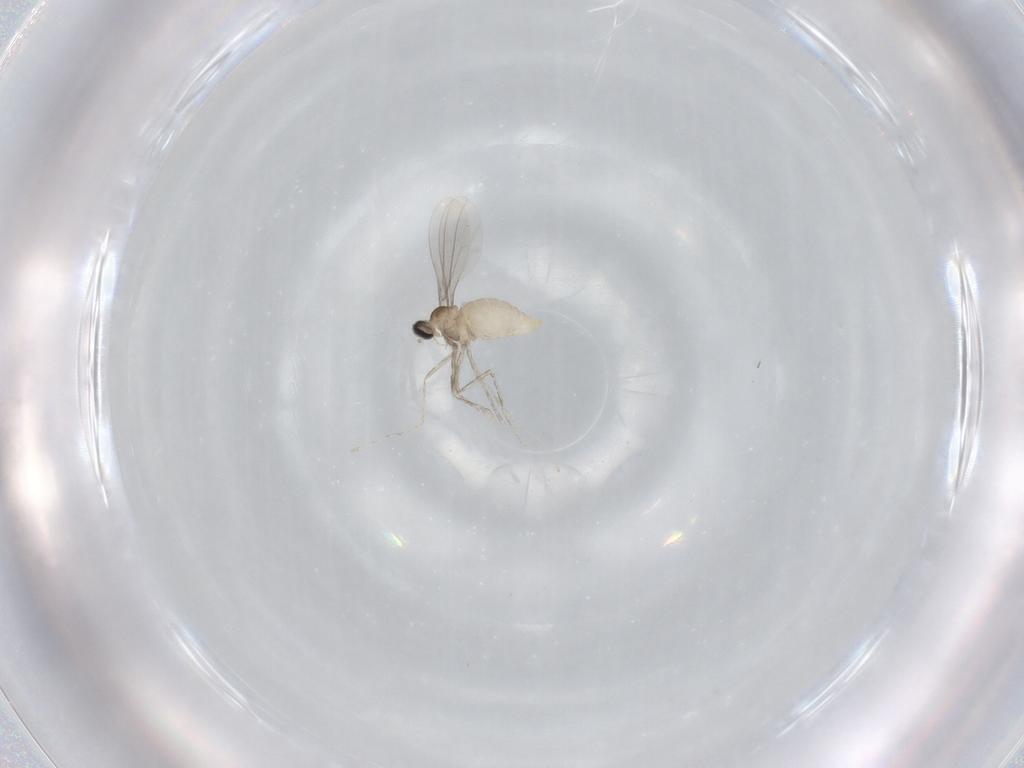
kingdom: Animalia
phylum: Arthropoda
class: Insecta
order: Diptera
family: Cecidomyiidae
